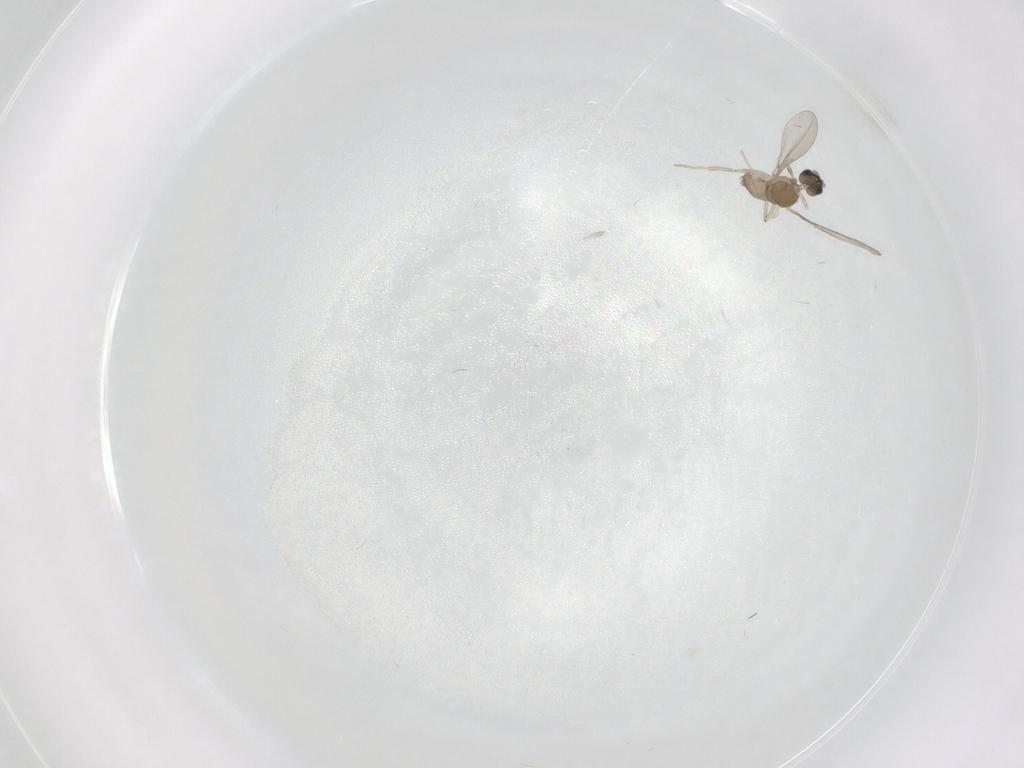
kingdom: Animalia
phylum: Arthropoda
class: Insecta
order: Diptera
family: Cecidomyiidae
